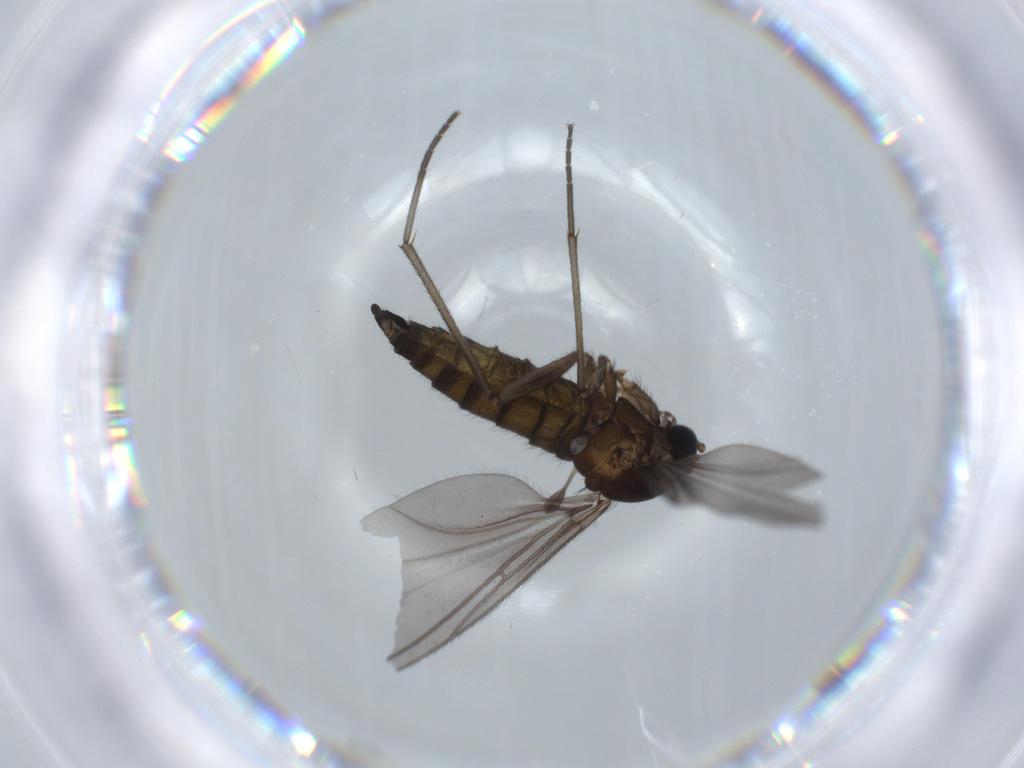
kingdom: Animalia
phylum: Arthropoda
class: Insecta
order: Diptera
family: Sciaridae
